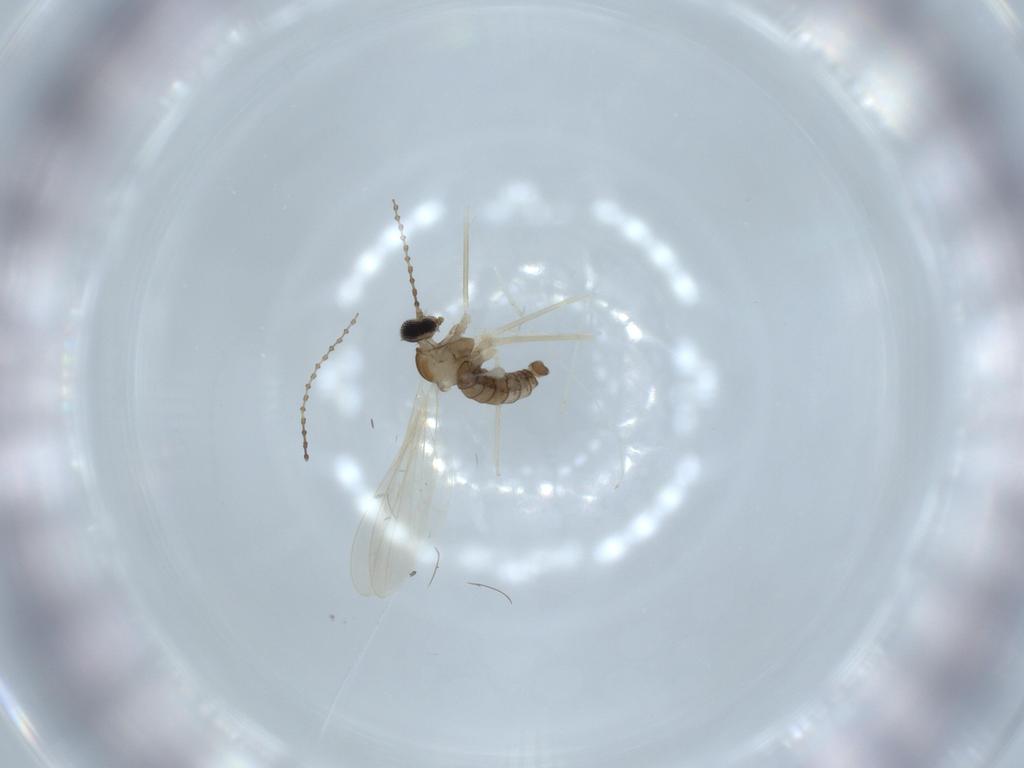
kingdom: Animalia
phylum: Arthropoda
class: Insecta
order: Diptera
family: Cecidomyiidae
